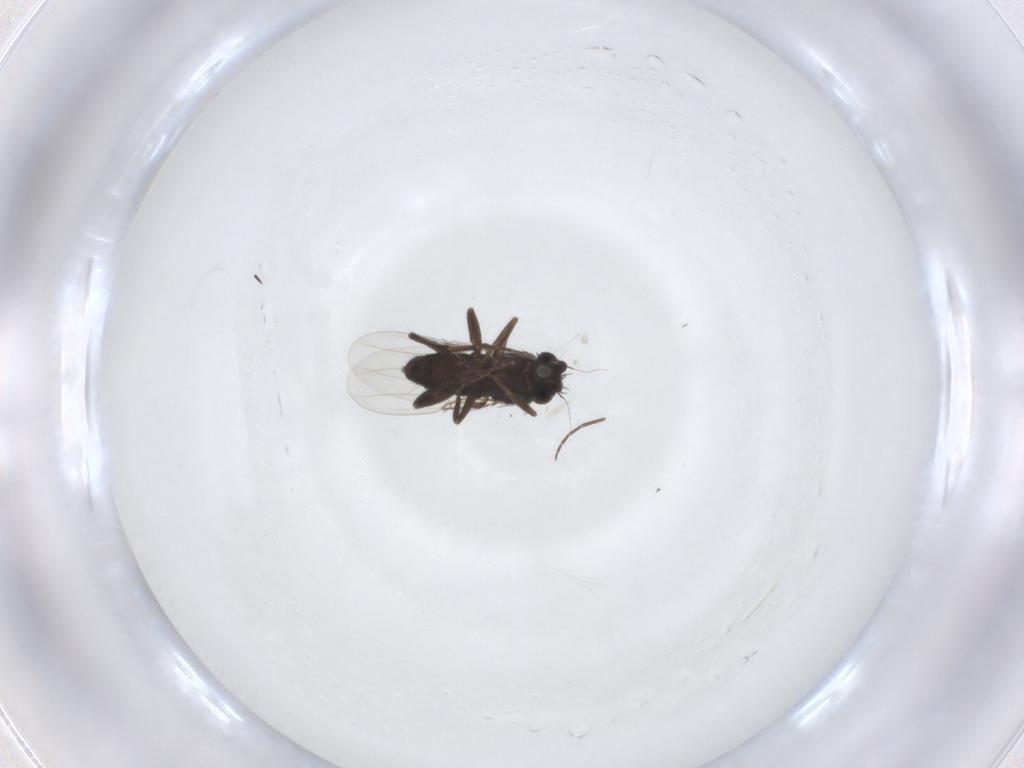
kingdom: Animalia
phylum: Arthropoda
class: Insecta
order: Diptera
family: Phoridae
